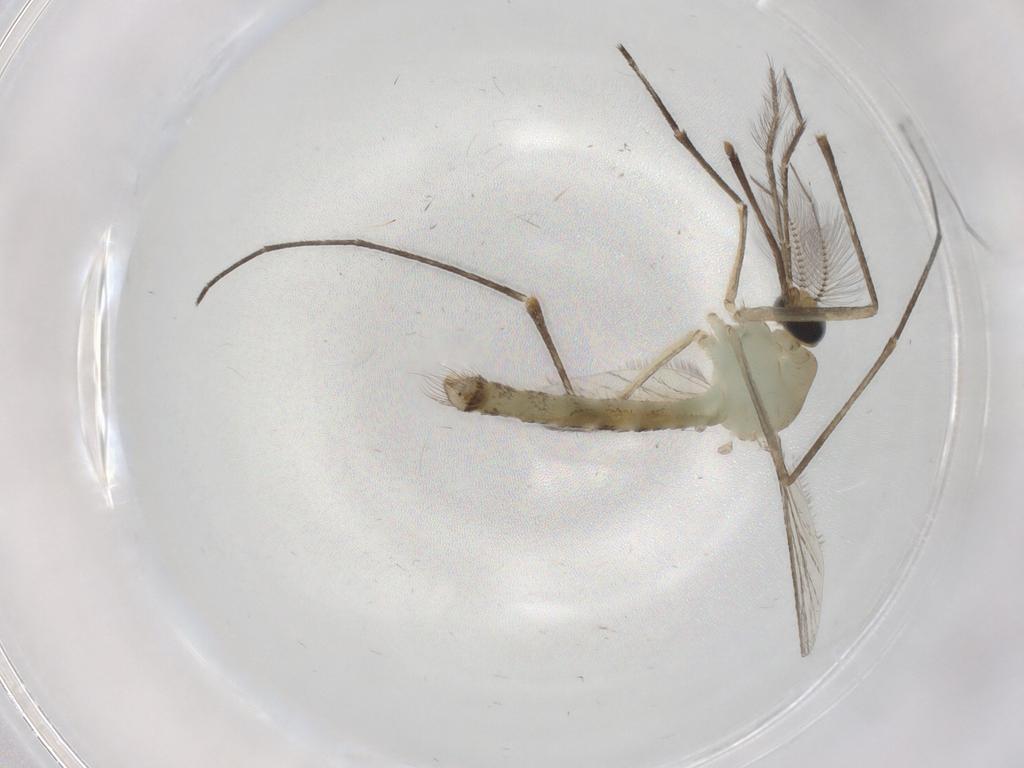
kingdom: Animalia
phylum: Arthropoda
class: Insecta
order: Diptera
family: Culicidae
